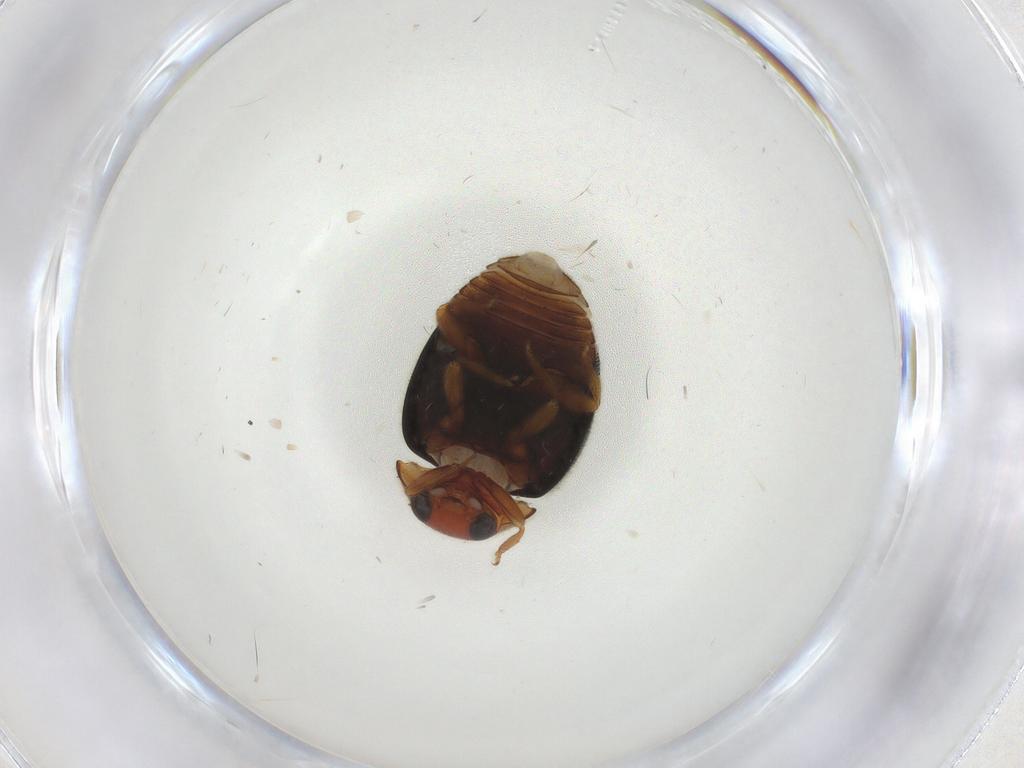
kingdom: Animalia
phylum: Arthropoda
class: Insecta
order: Coleoptera
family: Coccinellidae
